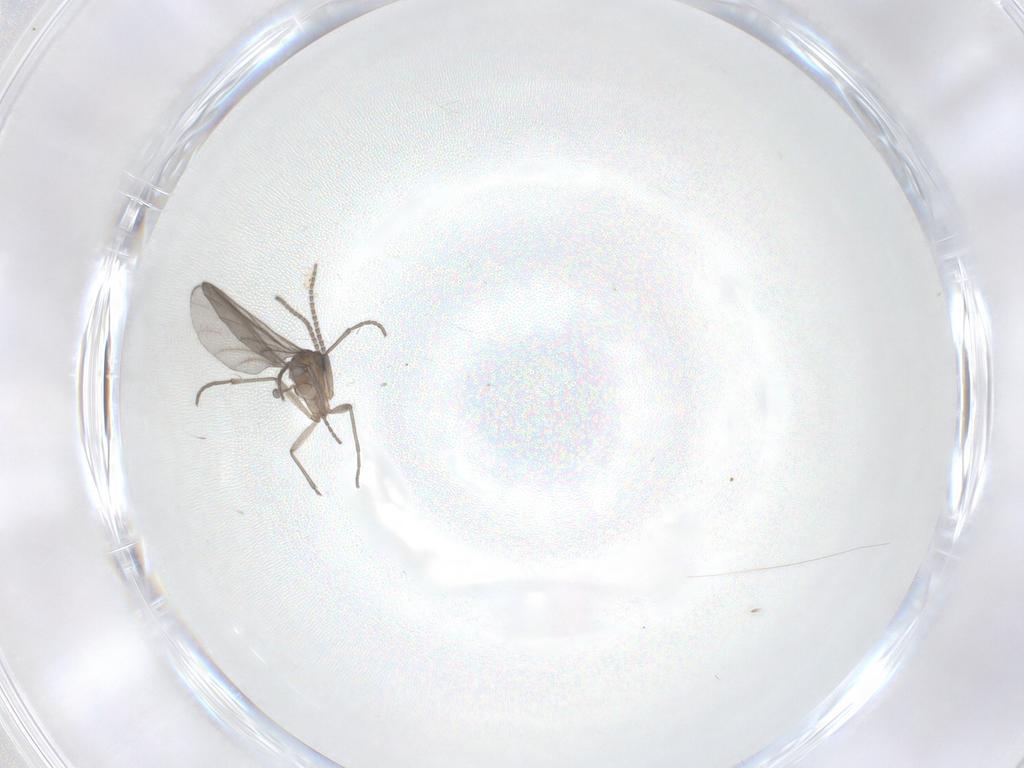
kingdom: Animalia
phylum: Arthropoda
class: Insecta
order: Diptera
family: Sciaridae
